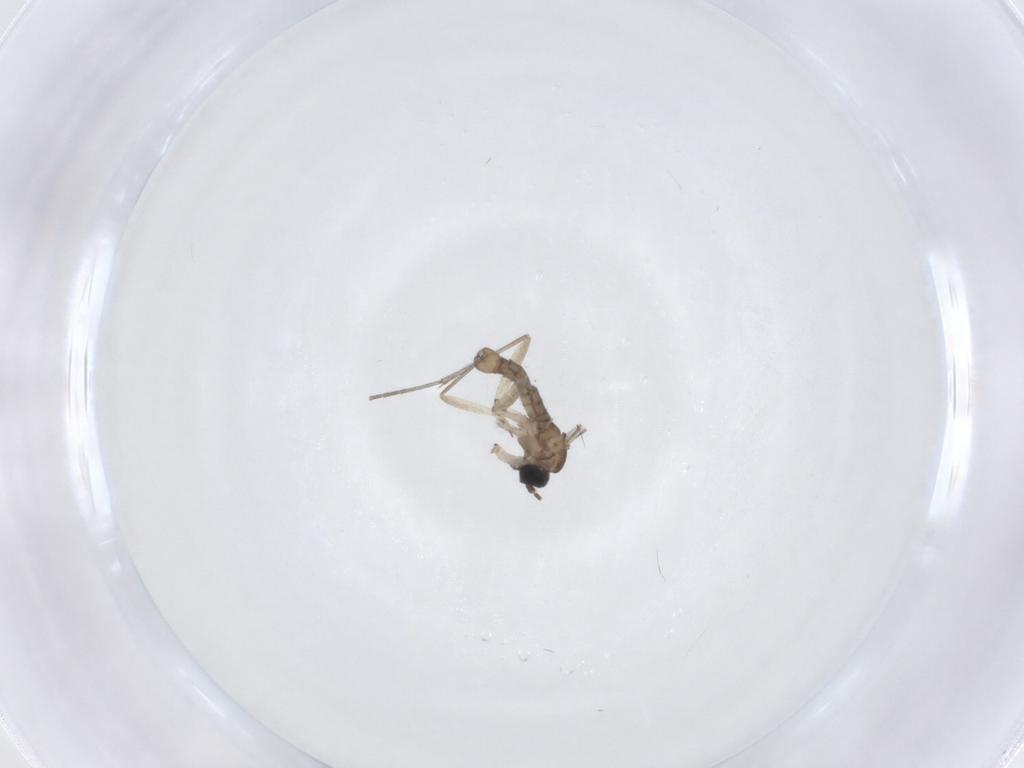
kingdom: Animalia
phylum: Arthropoda
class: Insecta
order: Diptera
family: Sciaridae
